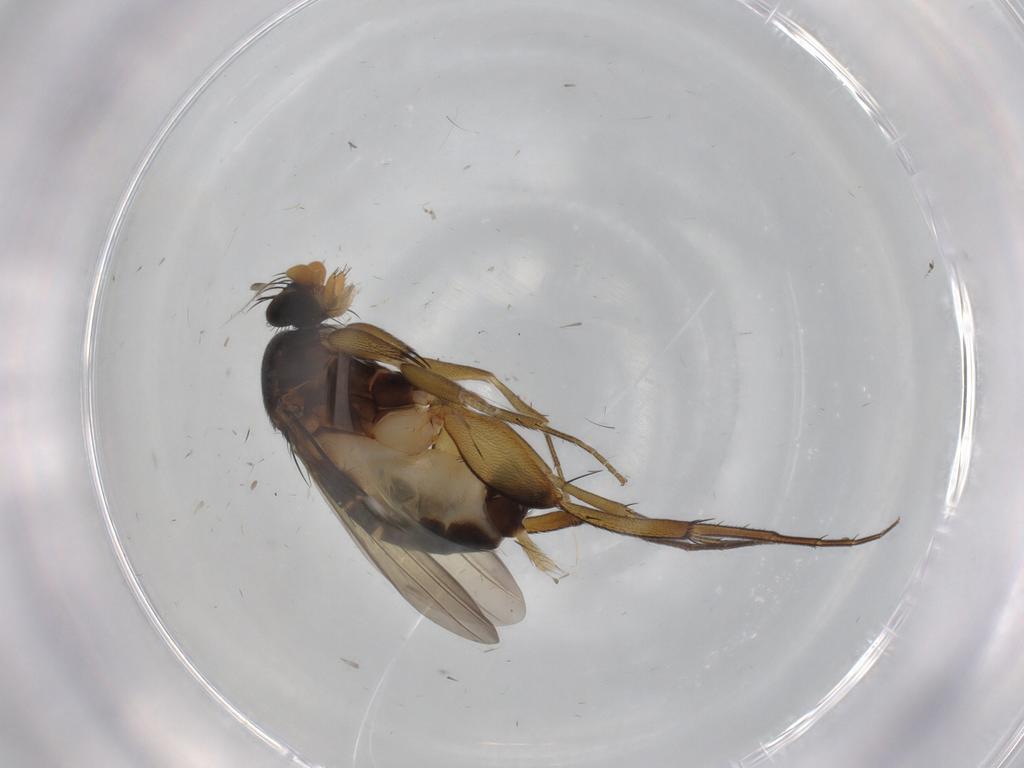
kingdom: Animalia
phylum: Arthropoda
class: Insecta
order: Diptera
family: Phoridae
